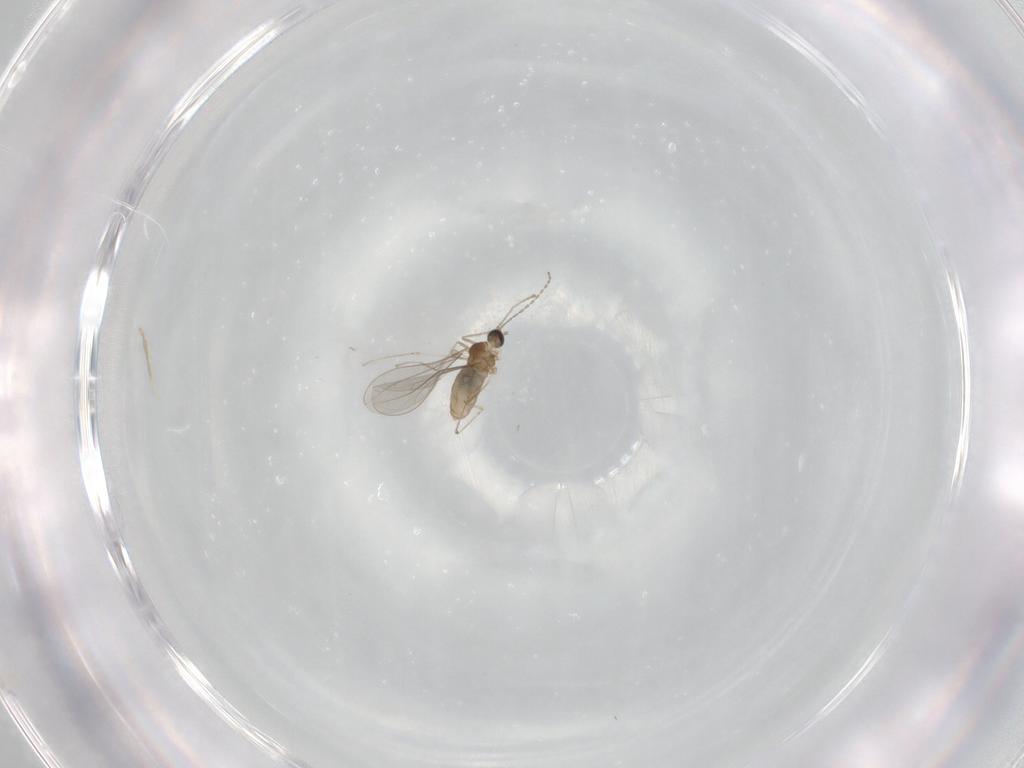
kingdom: Animalia
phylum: Arthropoda
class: Insecta
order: Diptera
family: Cecidomyiidae
